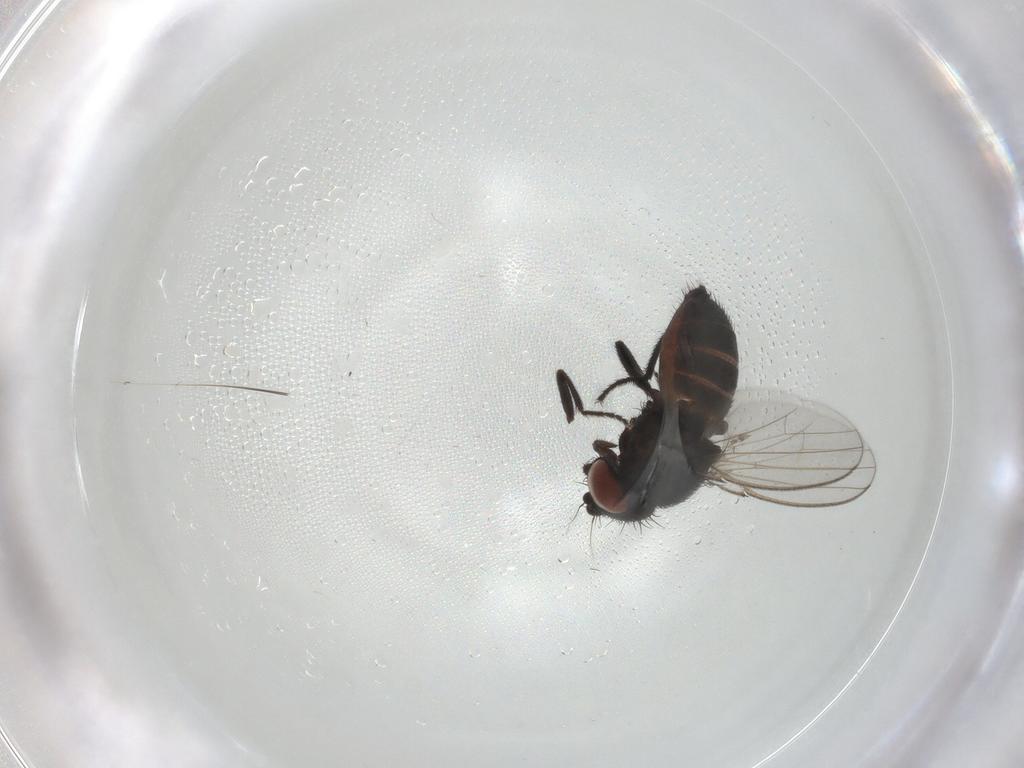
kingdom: Animalia
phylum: Arthropoda
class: Insecta
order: Diptera
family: Milichiidae
